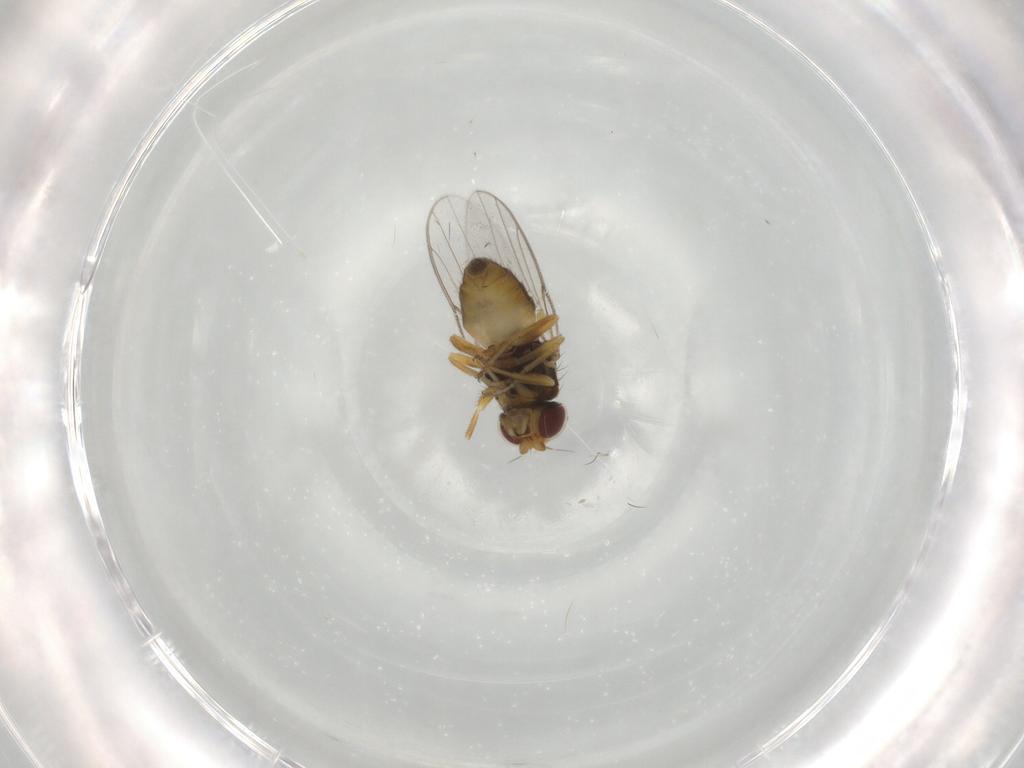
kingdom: Animalia
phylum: Arthropoda
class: Insecta
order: Diptera
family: Chloropidae
